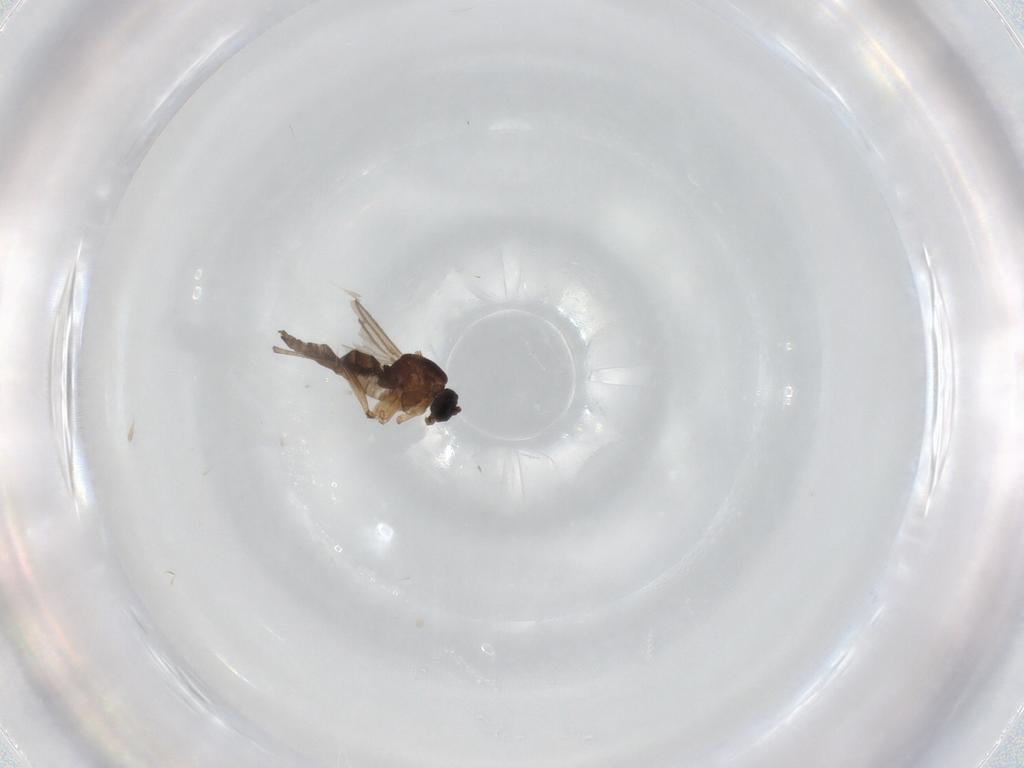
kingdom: Animalia
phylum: Arthropoda
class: Insecta
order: Diptera
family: Sciaridae
